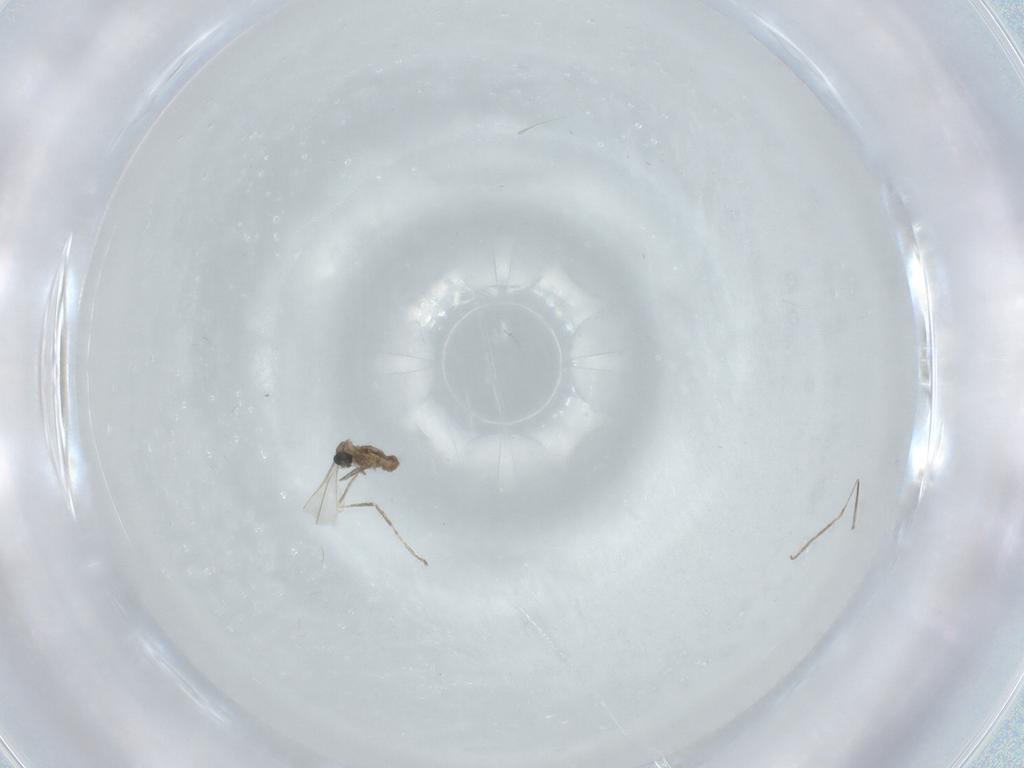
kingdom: Animalia
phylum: Arthropoda
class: Insecta
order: Diptera
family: Cecidomyiidae
